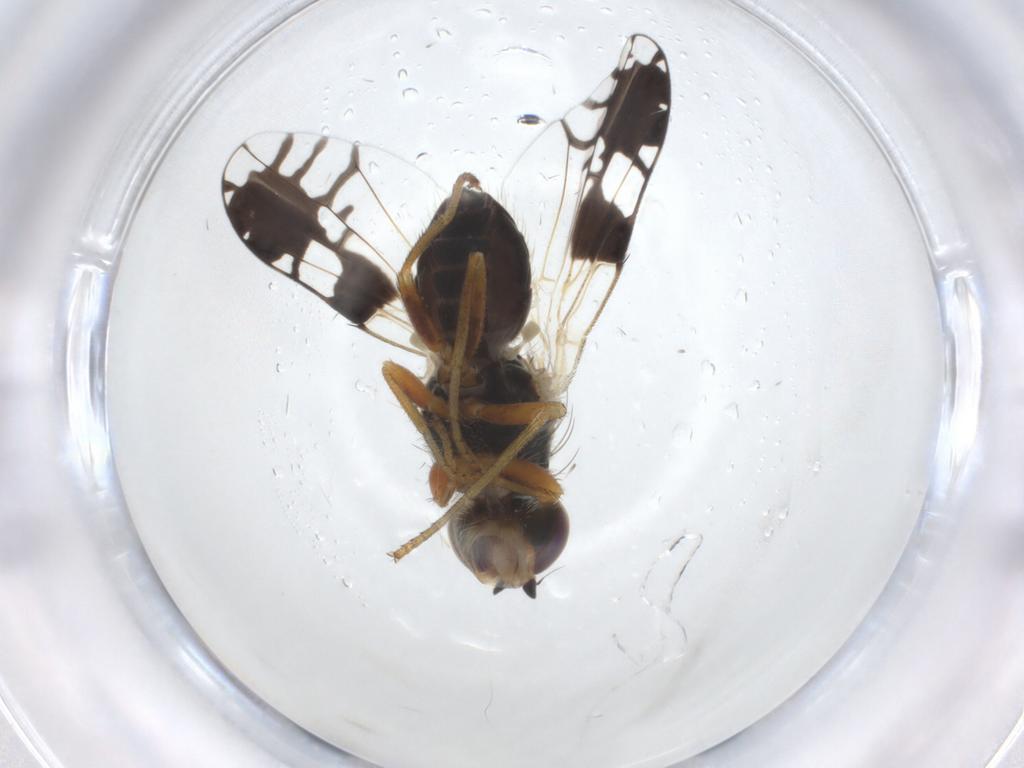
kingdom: Animalia
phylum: Arthropoda
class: Insecta
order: Diptera
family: Tephritidae
